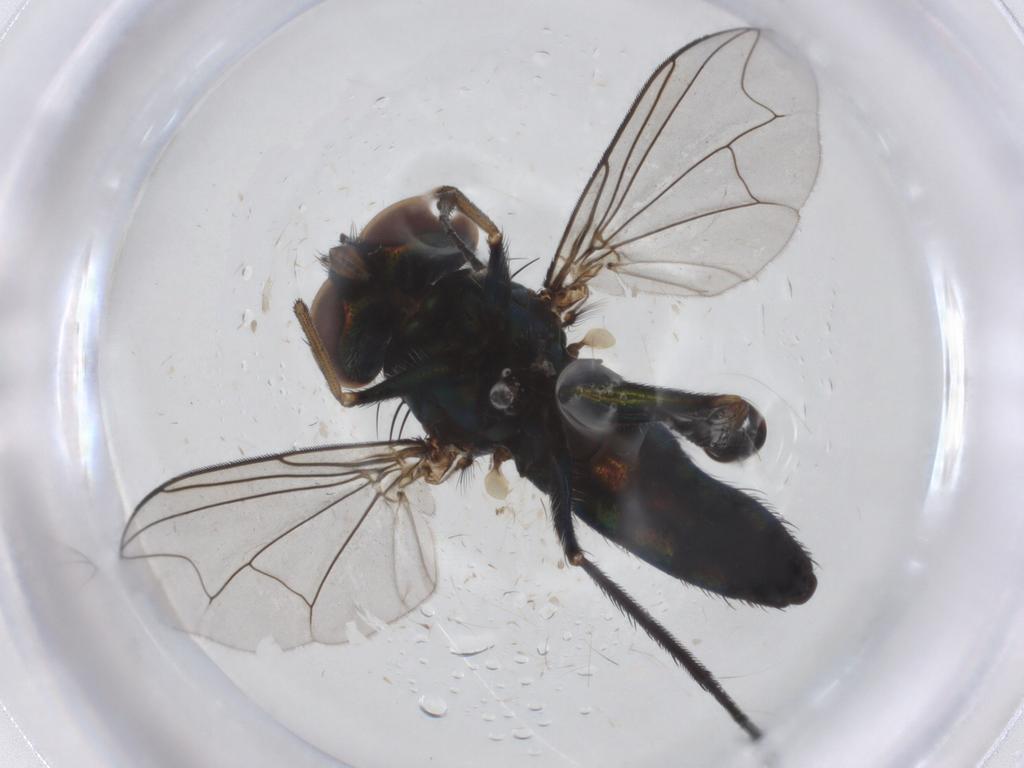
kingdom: Animalia
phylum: Arthropoda
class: Insecta
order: Diptera
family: Dolichopodidae
